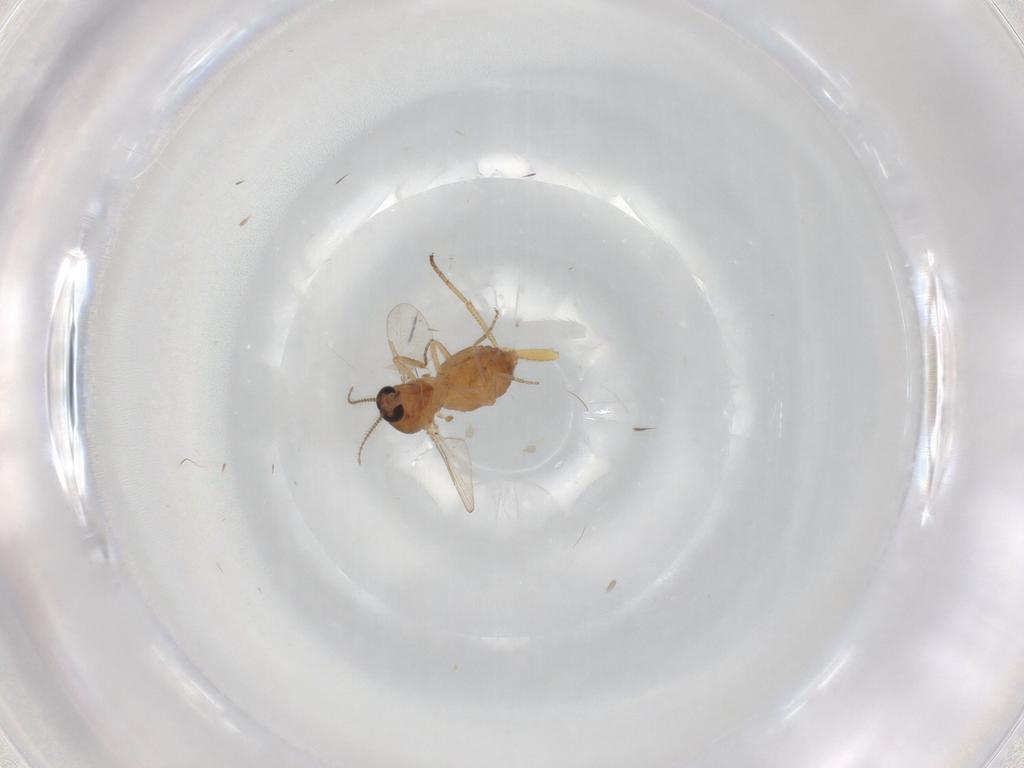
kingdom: Animalia
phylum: Arthropoda
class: Insecta
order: Diptera
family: Ceratopogonidae
